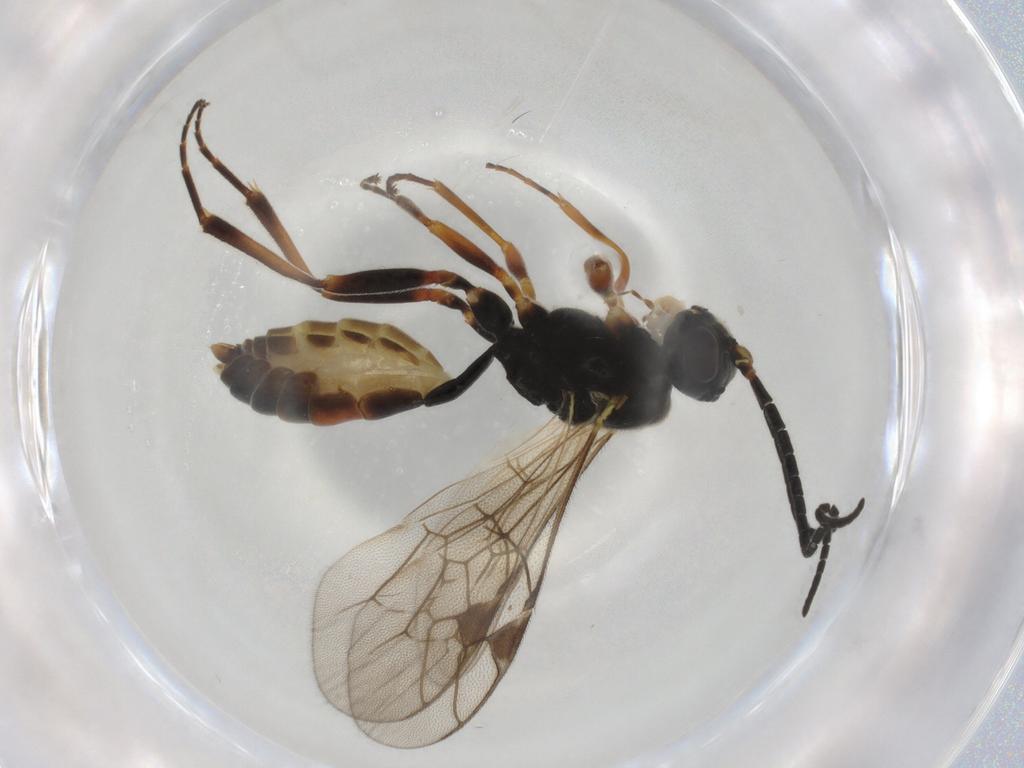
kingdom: Animalia
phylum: Arthropoda
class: Insecta
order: Hymenoptera
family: Ichneumonidae
